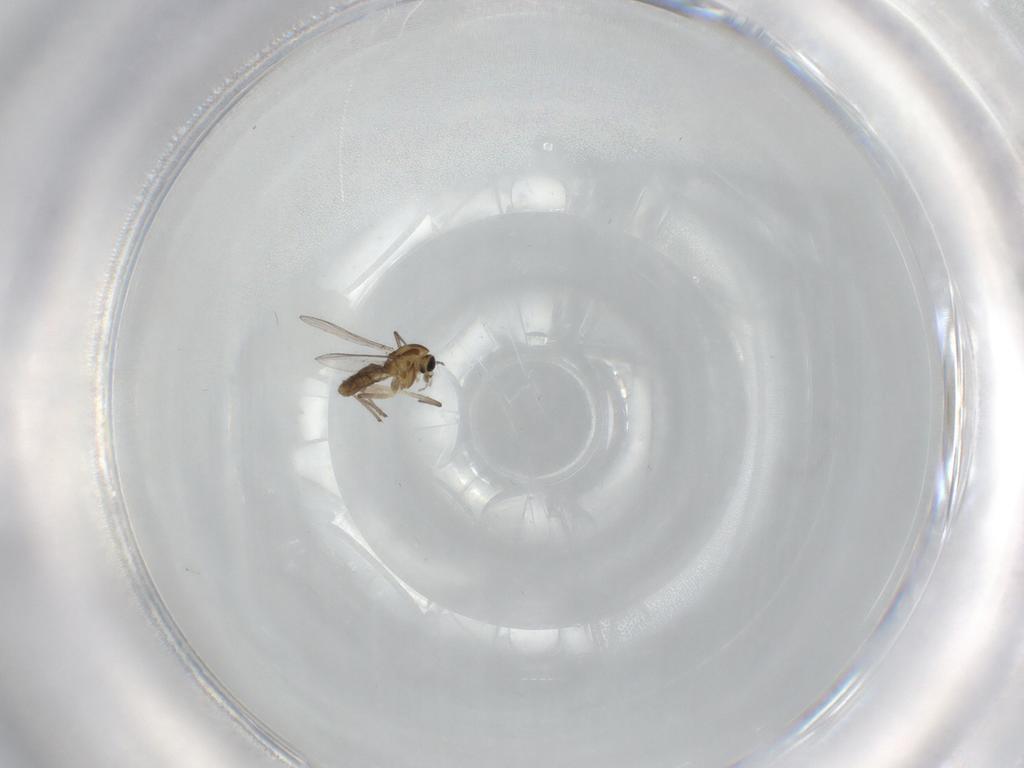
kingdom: Animalia
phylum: Arthropoda
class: Insecta
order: Diptera
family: Chironomidae
